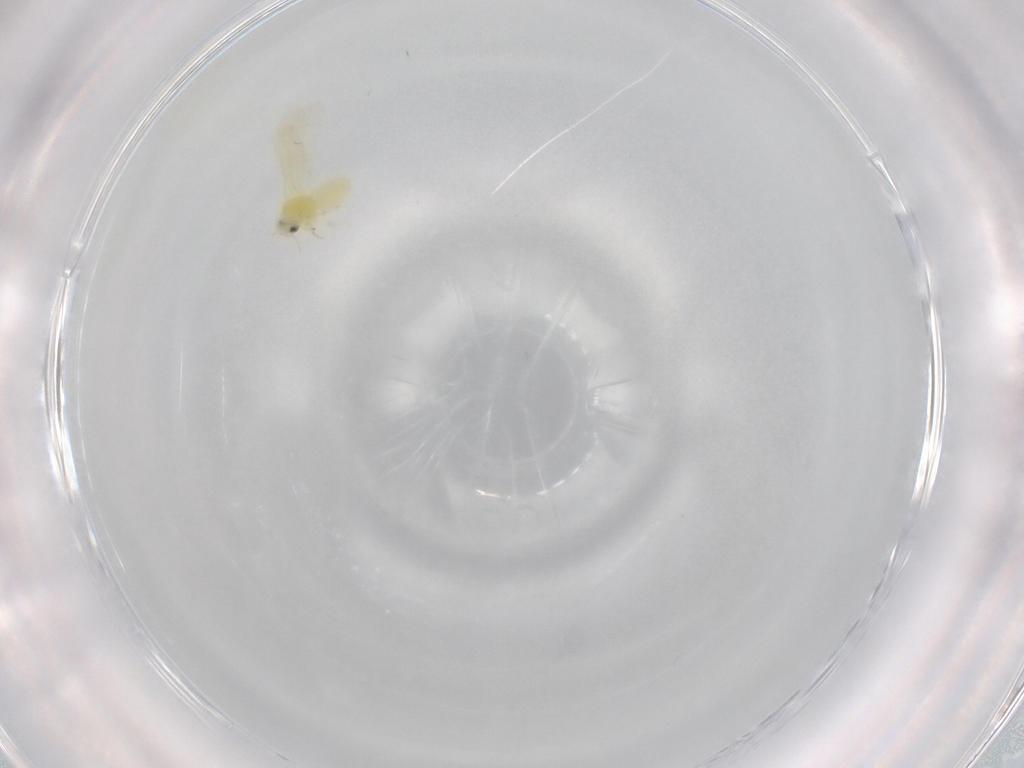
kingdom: Animalia
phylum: Arthropoda
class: Insecta
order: Hemiptera
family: Aleyrodidae
